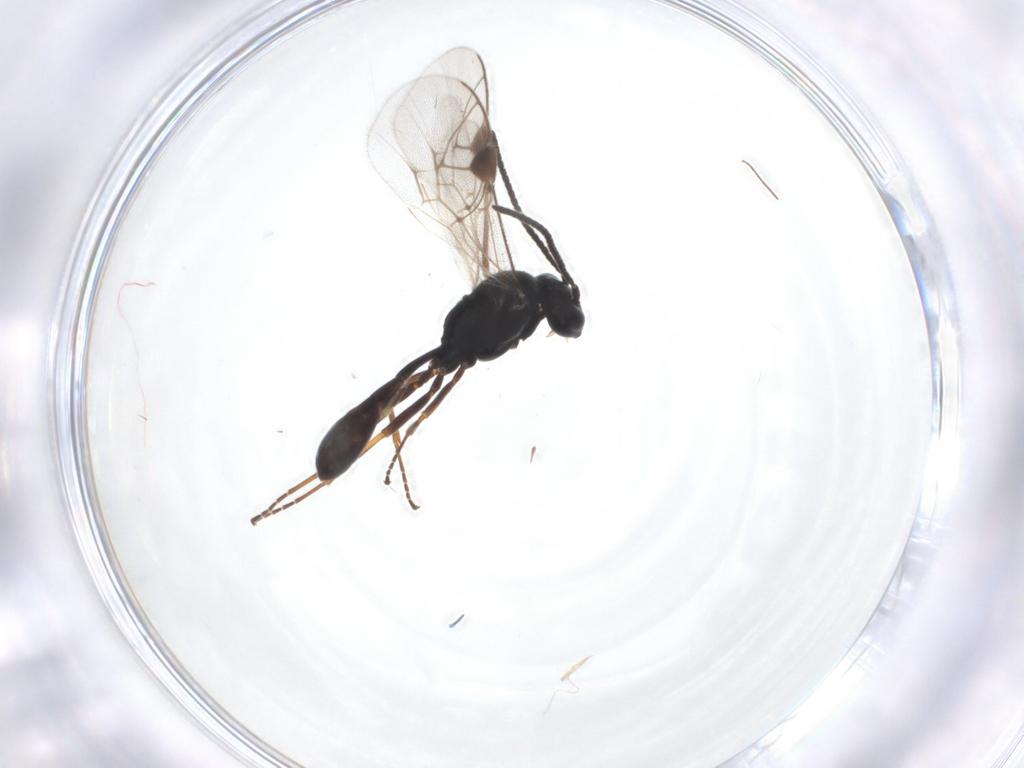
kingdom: Animalia
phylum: Arthropoda
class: Insecta
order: Hymenoptera
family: Ichneumonidae
